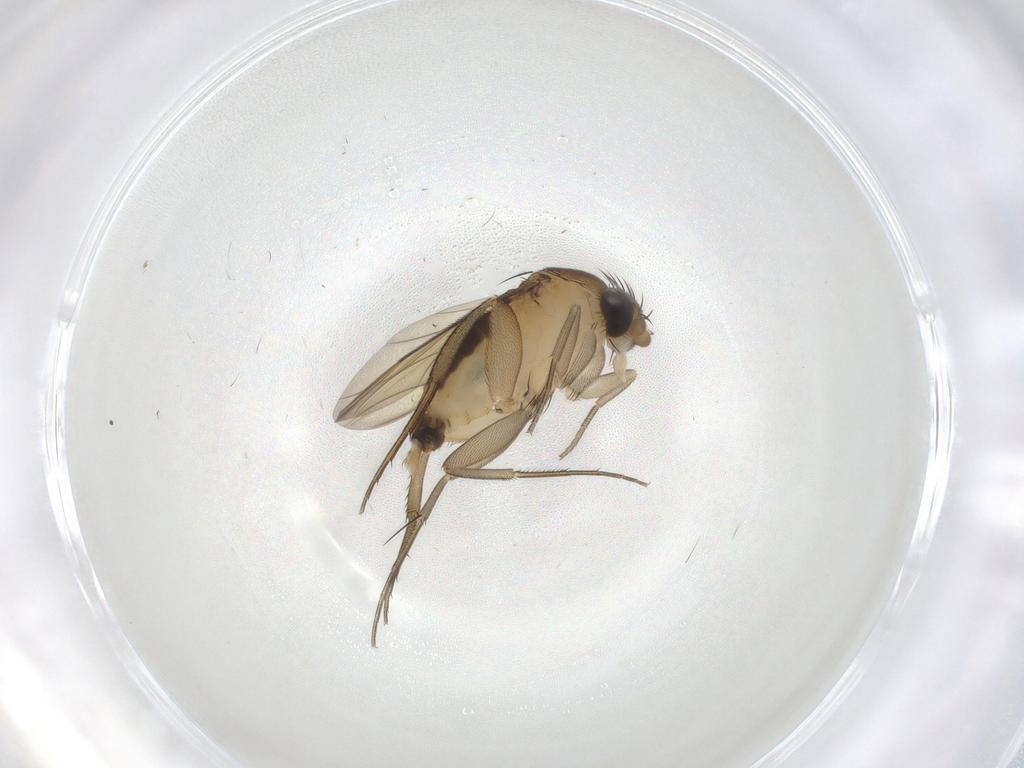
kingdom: Animalia
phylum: Arthropoda
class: Insecta
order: Diptera
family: Phoridae
